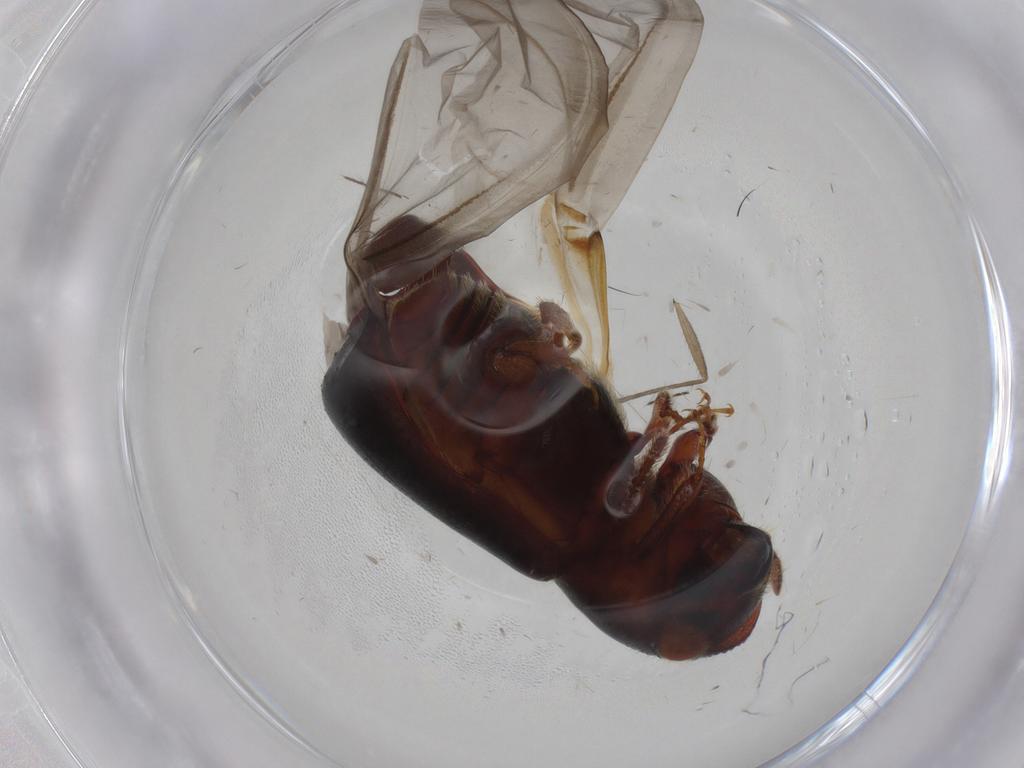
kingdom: Animalia
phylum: Arthropoda
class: Insecta
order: Coleoptera
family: Curculionidae
